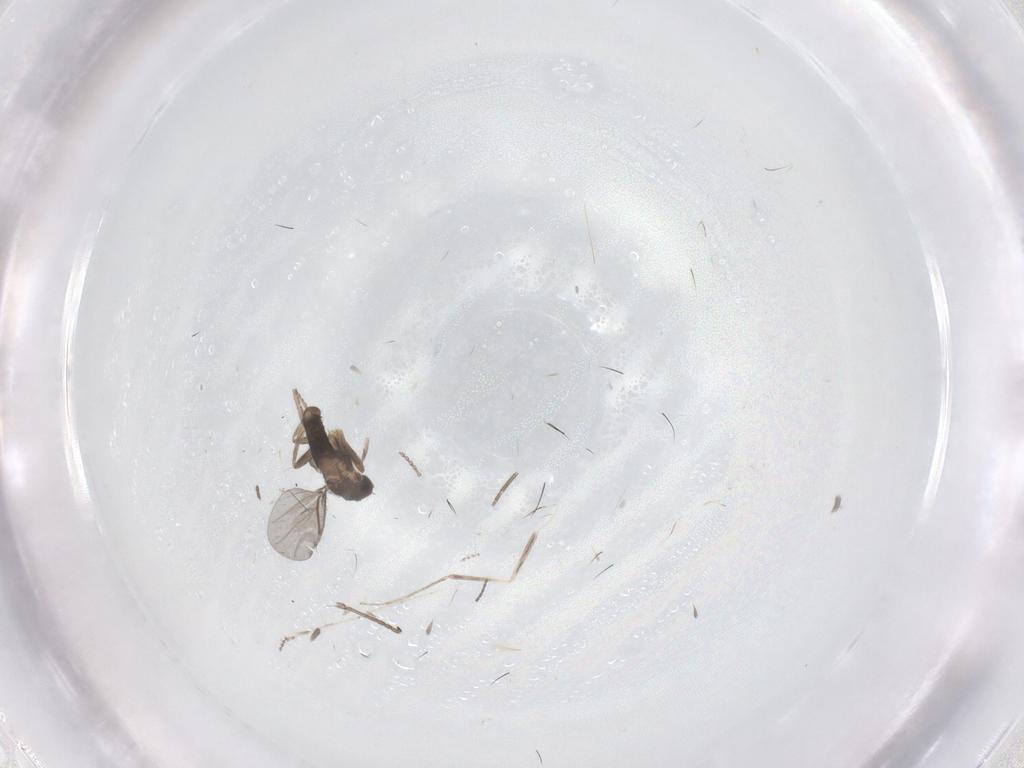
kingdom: Animalia
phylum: Arthropoda
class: Insecta
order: Diptera
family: Cecidomyiidae
